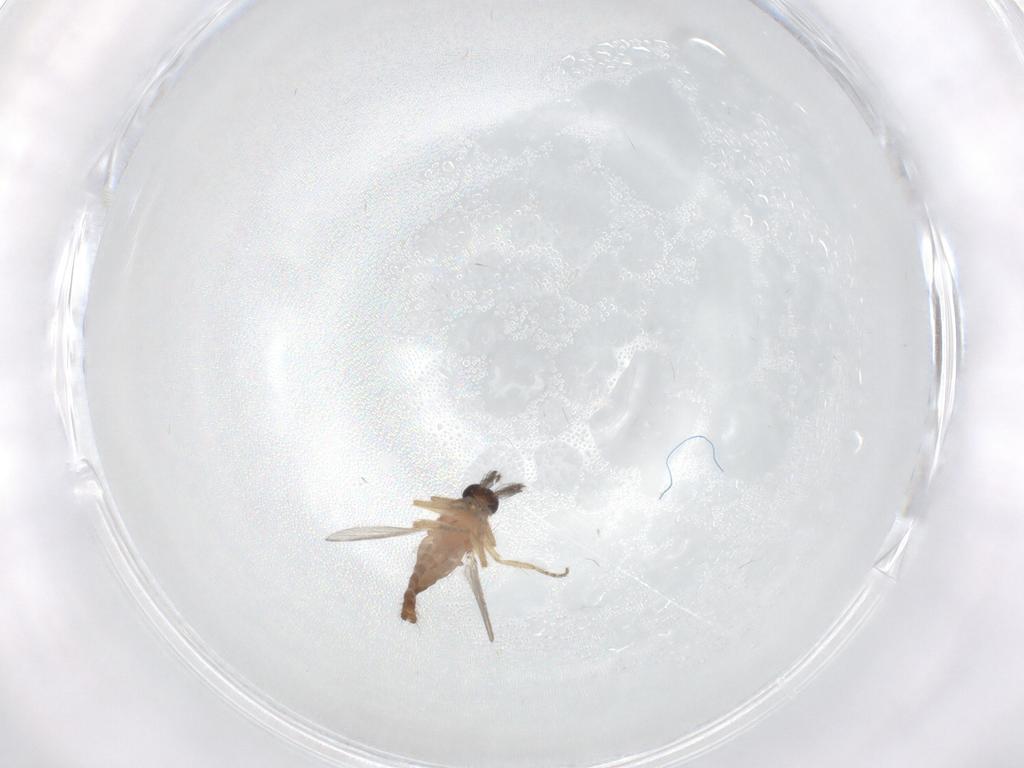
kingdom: Animalia
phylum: Arthropoda
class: Insecta
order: Diptera
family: Ceratopogonidae
